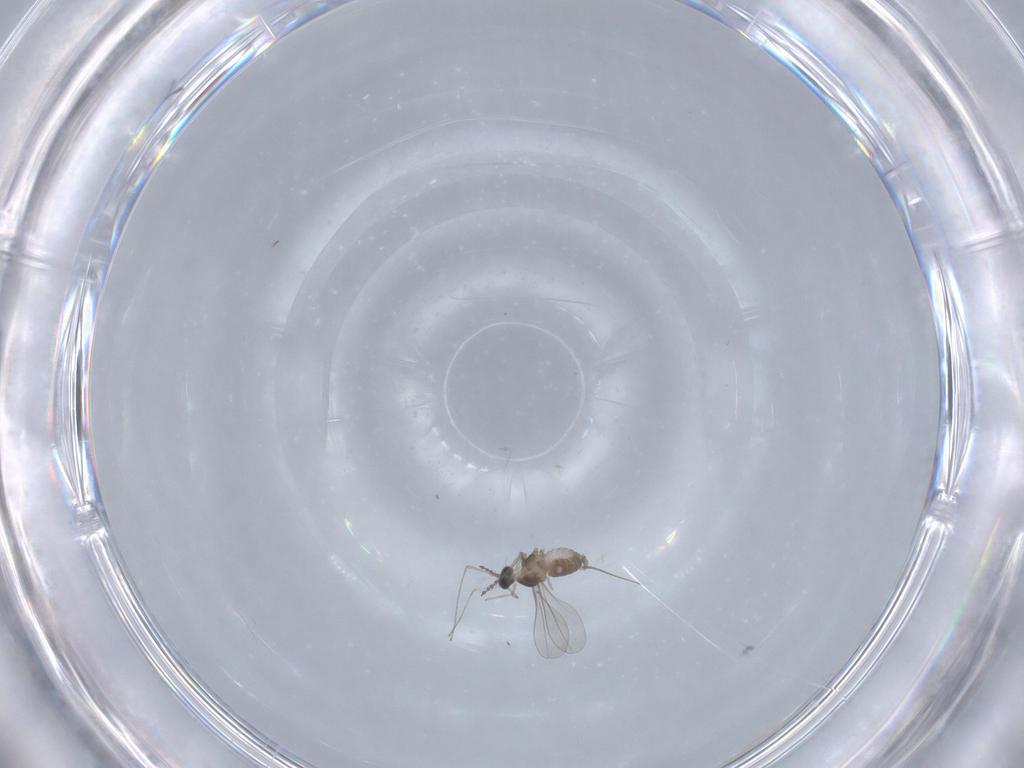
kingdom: Animalia
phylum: Arthropoda
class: Insecta
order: Diptera
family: Cecidomyiidae
